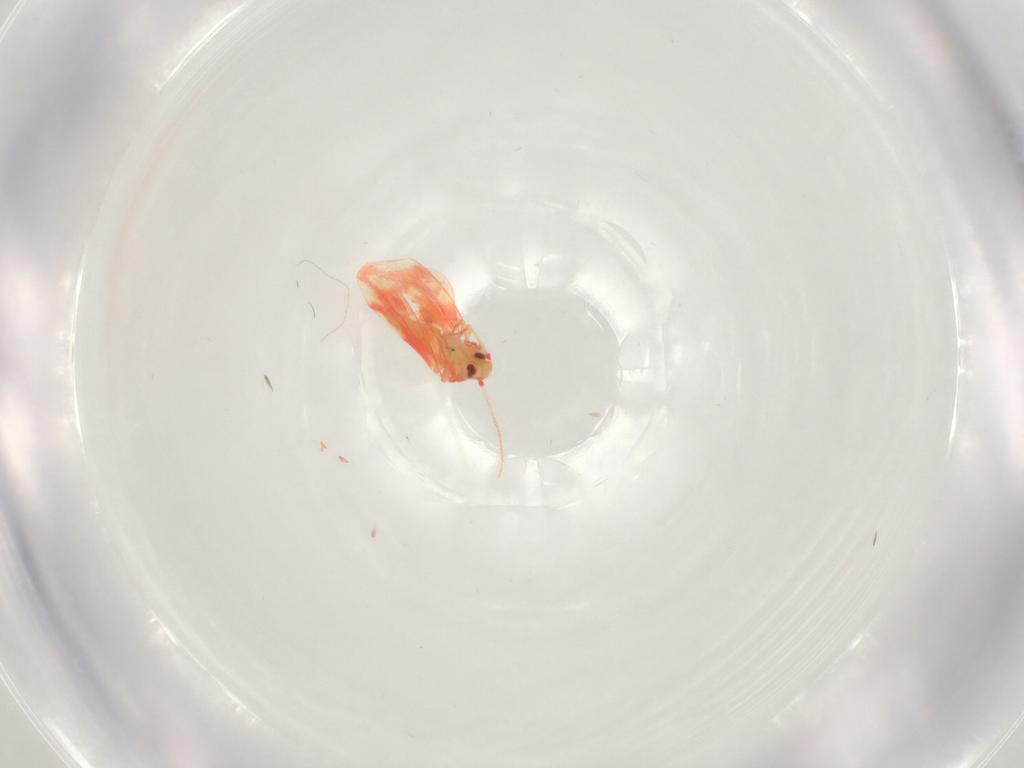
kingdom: Animalia
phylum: Arthropoda
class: Insecta
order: Hemiptera
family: Aleyrodidae
